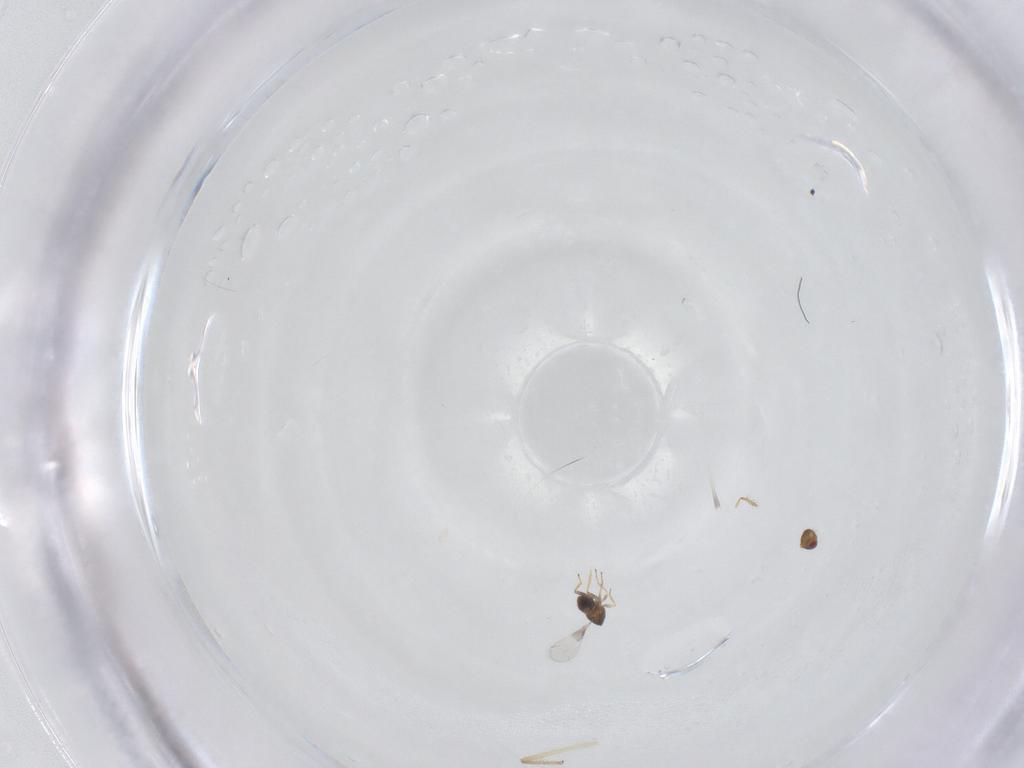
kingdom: Animalia
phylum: Arthropoda
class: Insecta
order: Hymenoptera
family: Trichogrammatidae
